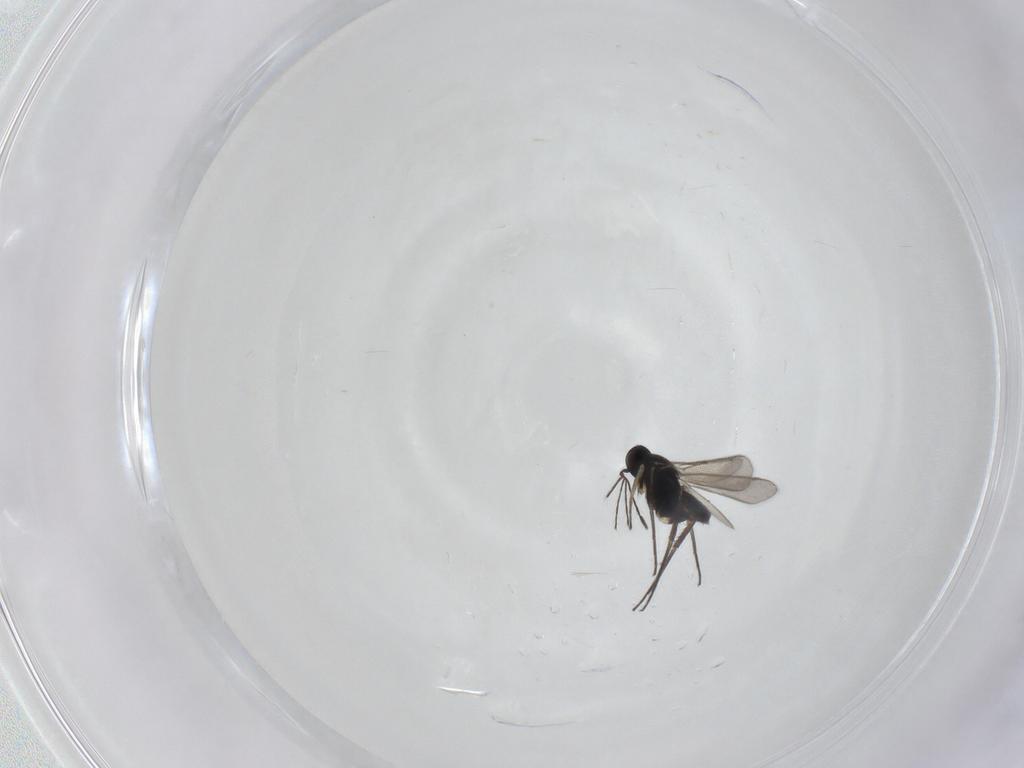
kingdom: Animalia
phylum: Arthropoda
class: Insecta
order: Hymenoptera
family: Eulophidae
